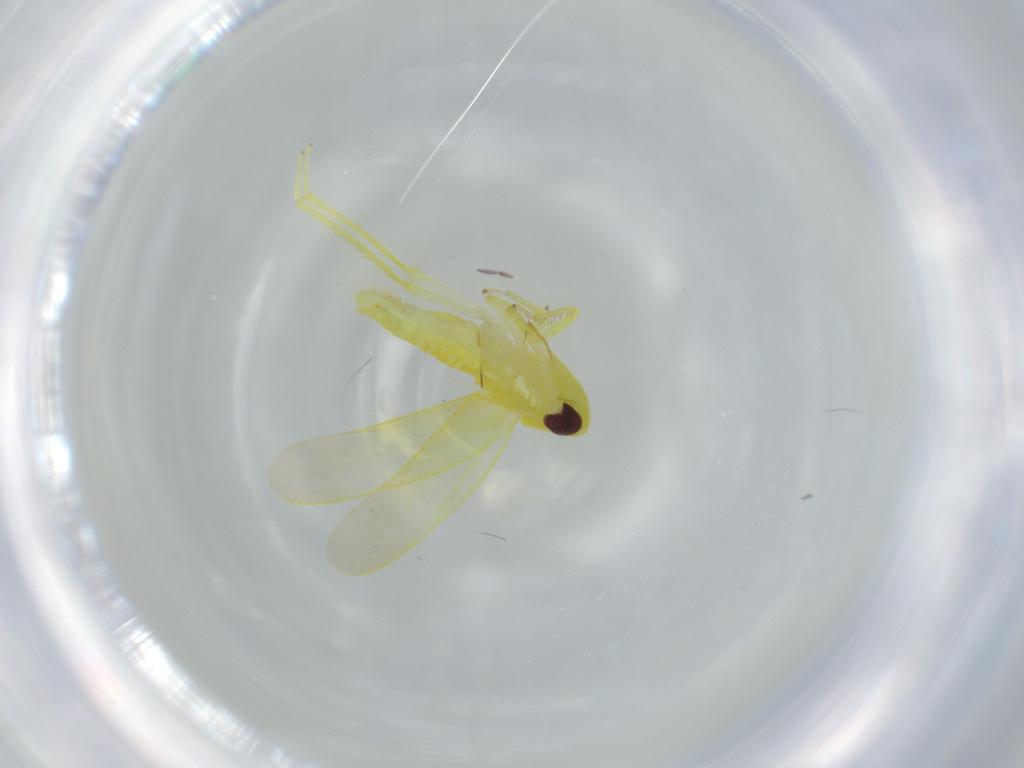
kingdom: Animalia
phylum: Arthropoda
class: Insecta
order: Hemiptera
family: Cicadellidae
